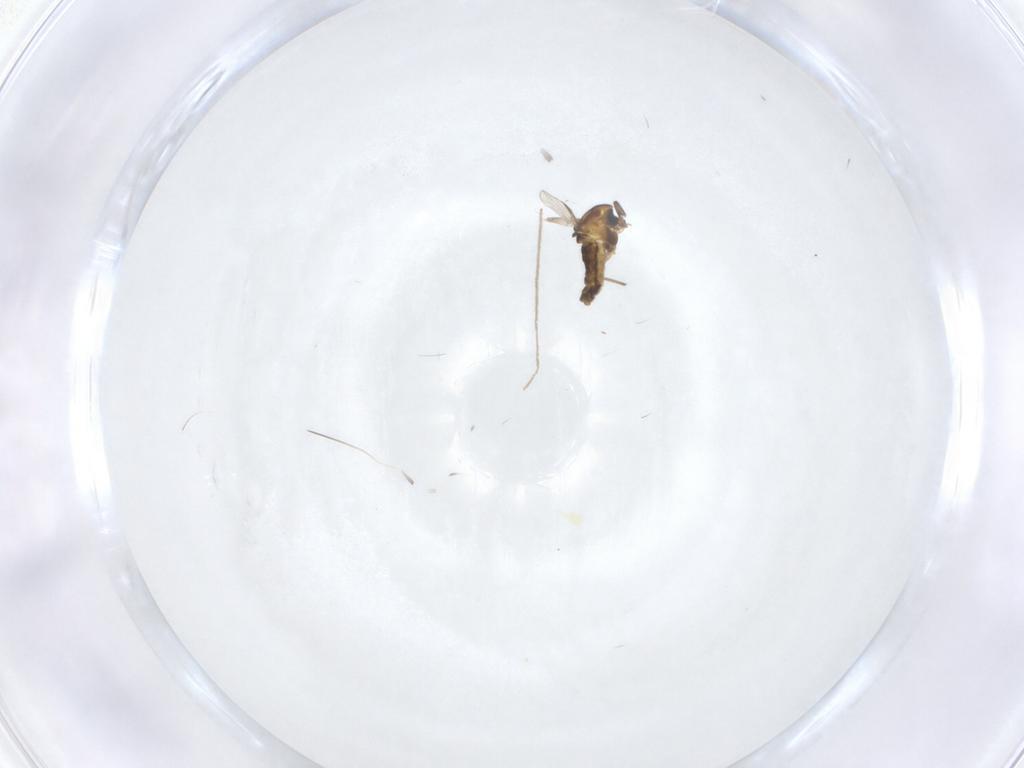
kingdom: Animalia
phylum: Arthropoda
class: Insecta
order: Diptera
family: Chironomidae
